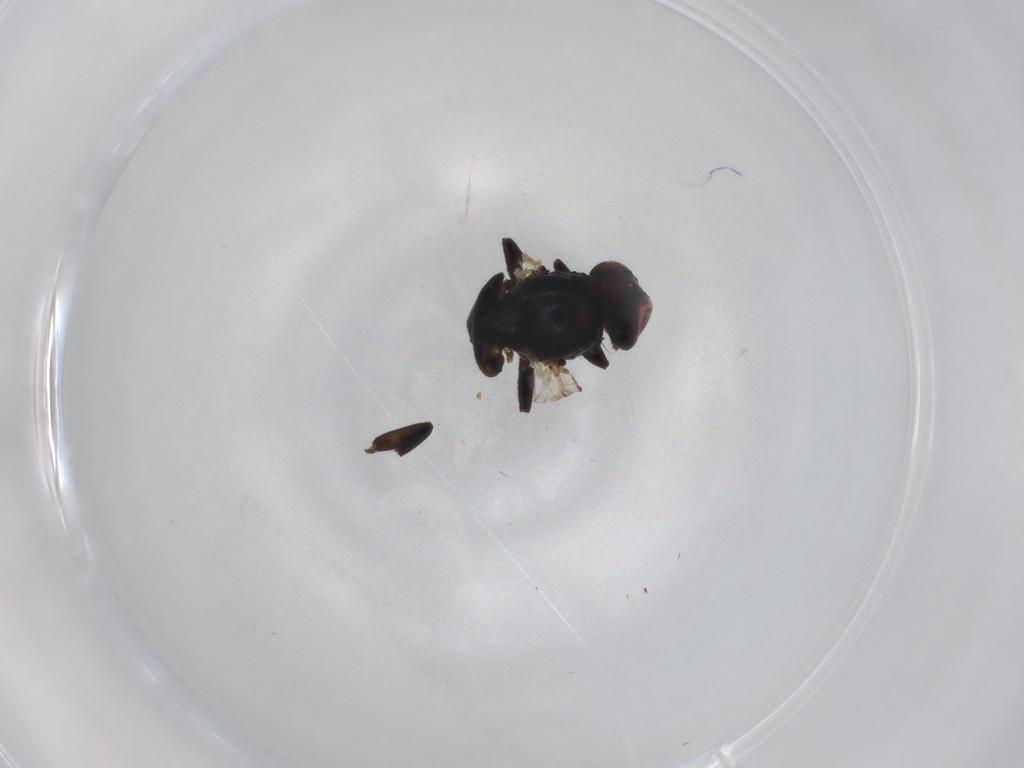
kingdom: Animalia
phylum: Arthropoda
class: Insecta
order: Diptera
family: Agromyzidae
